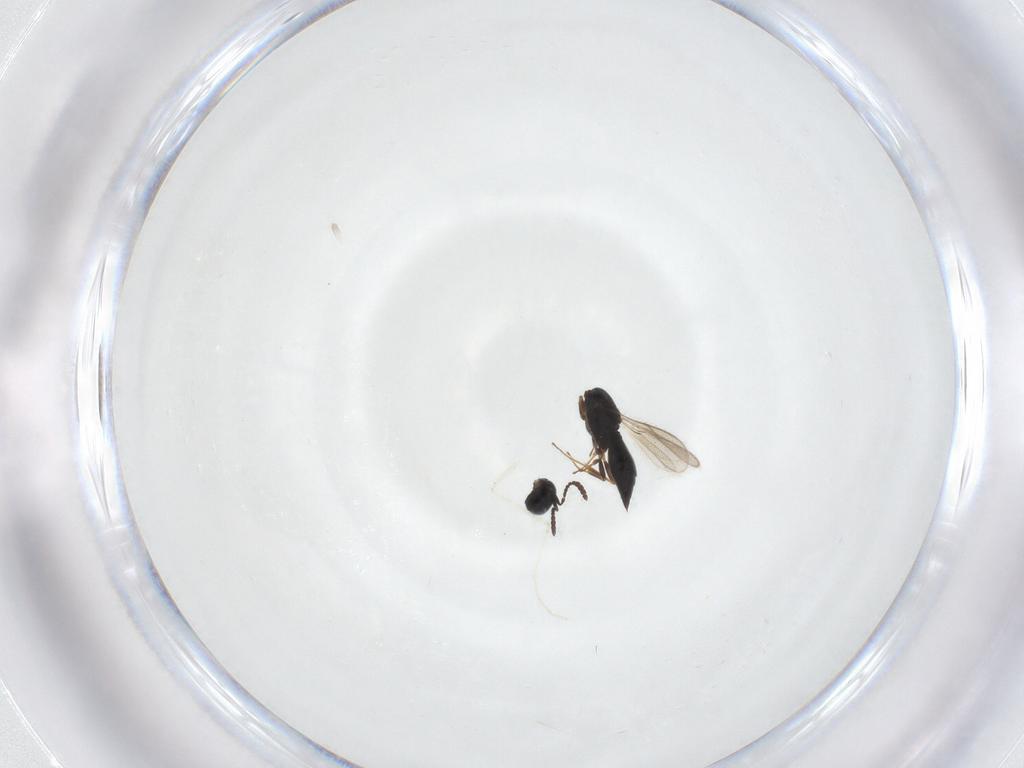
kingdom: Animalia
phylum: Arthropoda
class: Insecta
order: Hymenoptera
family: Scelionidae
